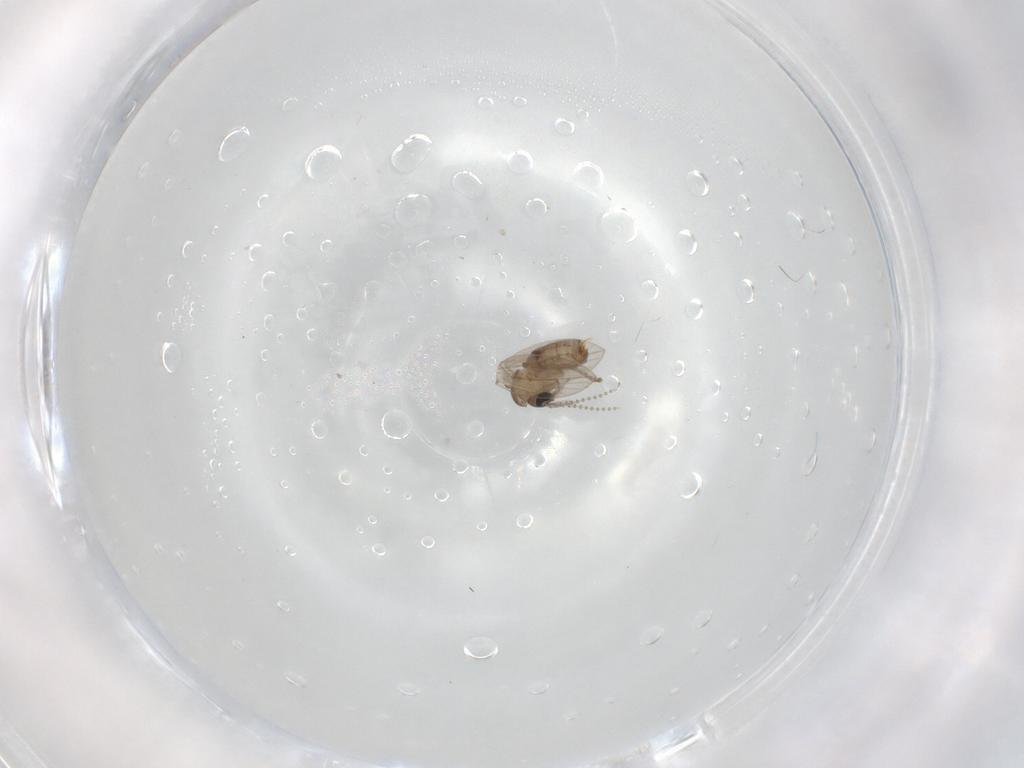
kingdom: Animalia
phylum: Arthropoda
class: Insecta
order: Diptera
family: Psychodidae
